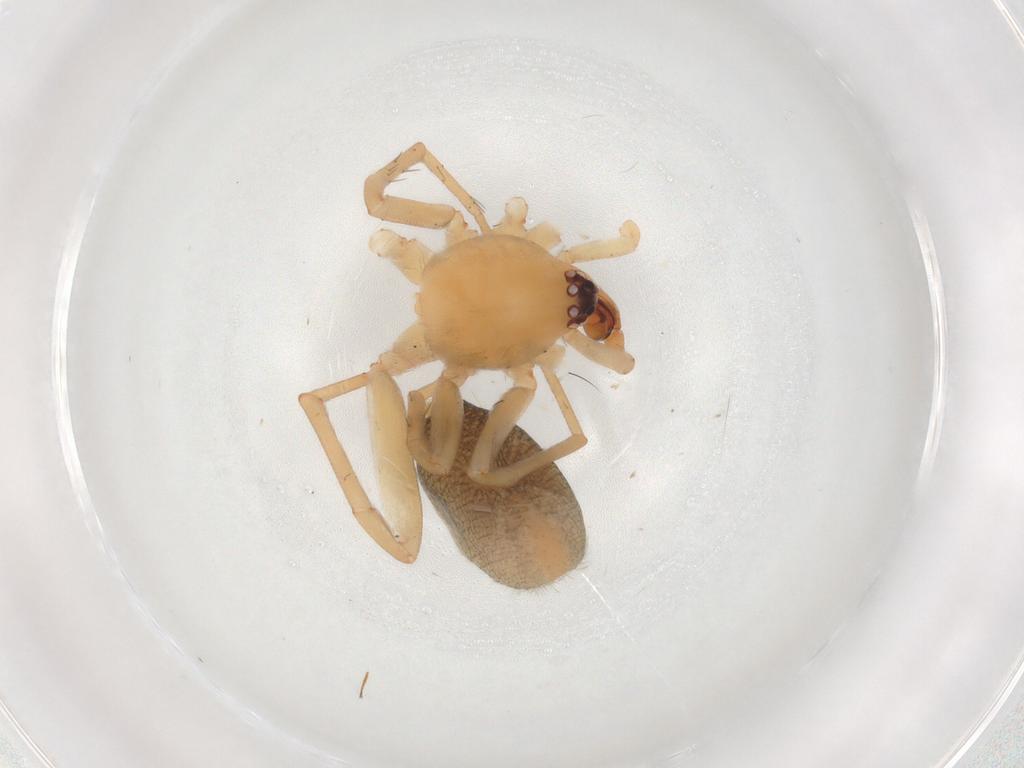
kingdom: Animalia
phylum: Arthropoda
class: Arachnida
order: Araneae
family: Corinnidae
